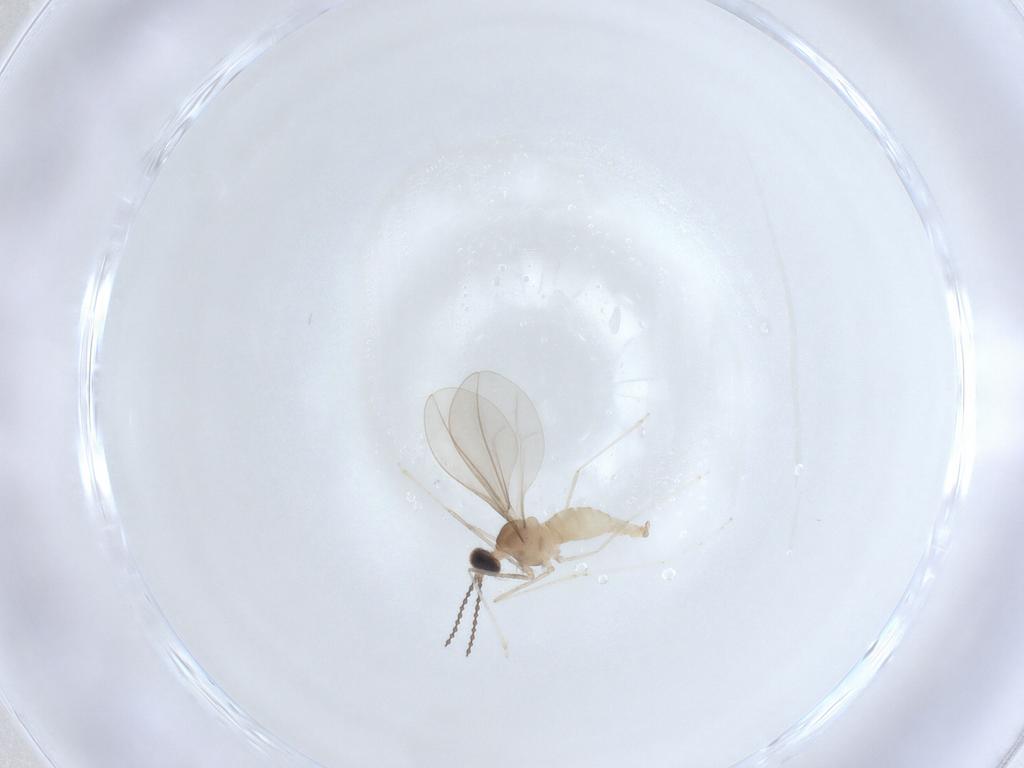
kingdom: Animalia
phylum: Arthropoda
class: Insecta
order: Diptera
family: Cecidomyiidae
